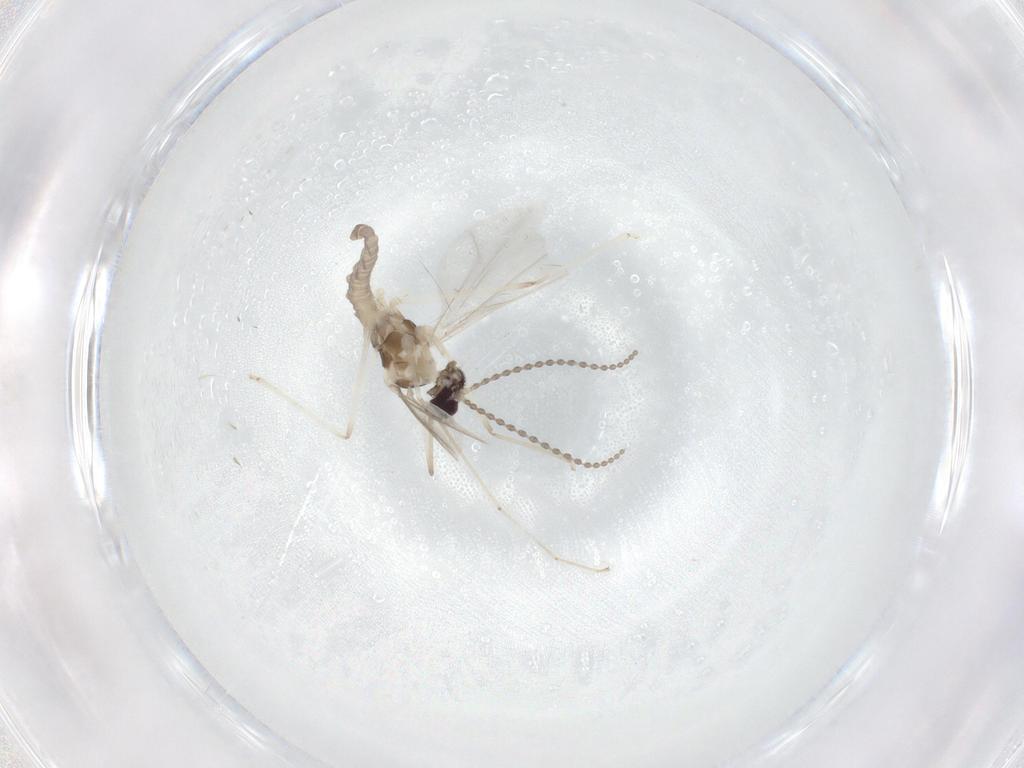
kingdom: Animalia
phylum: Arthropoda
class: Insecta
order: Diptera
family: Cecidomyiidae
